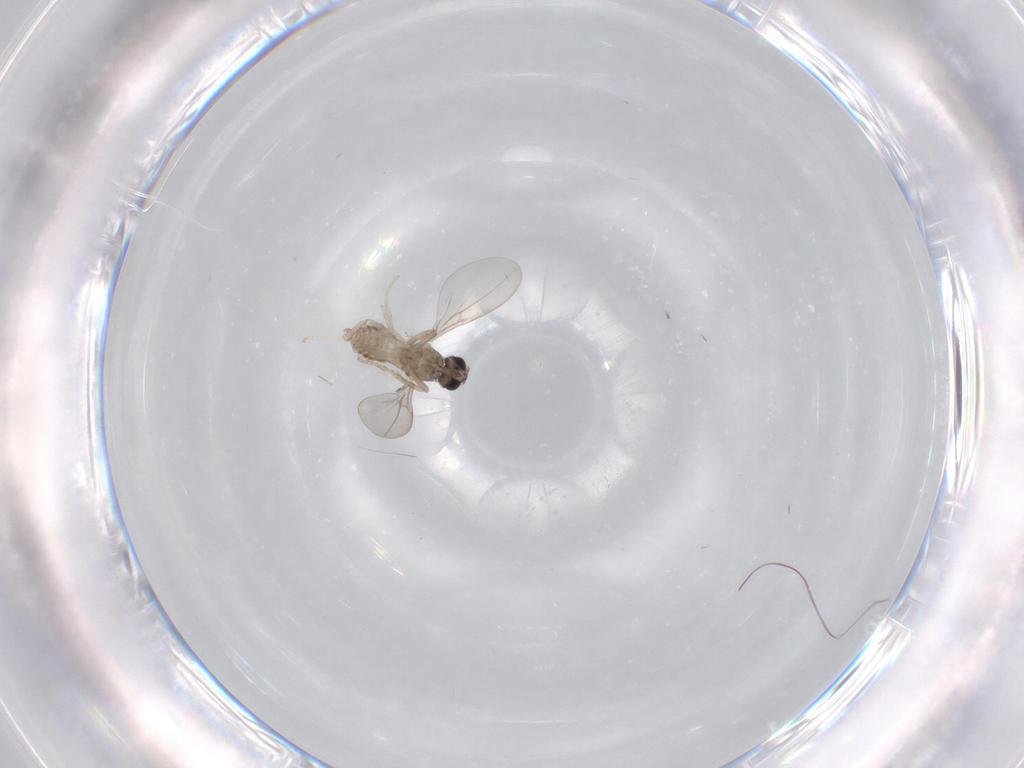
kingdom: Animalia
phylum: Arthropoda
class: Insecta
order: Diptera
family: Cecidomyiidae
